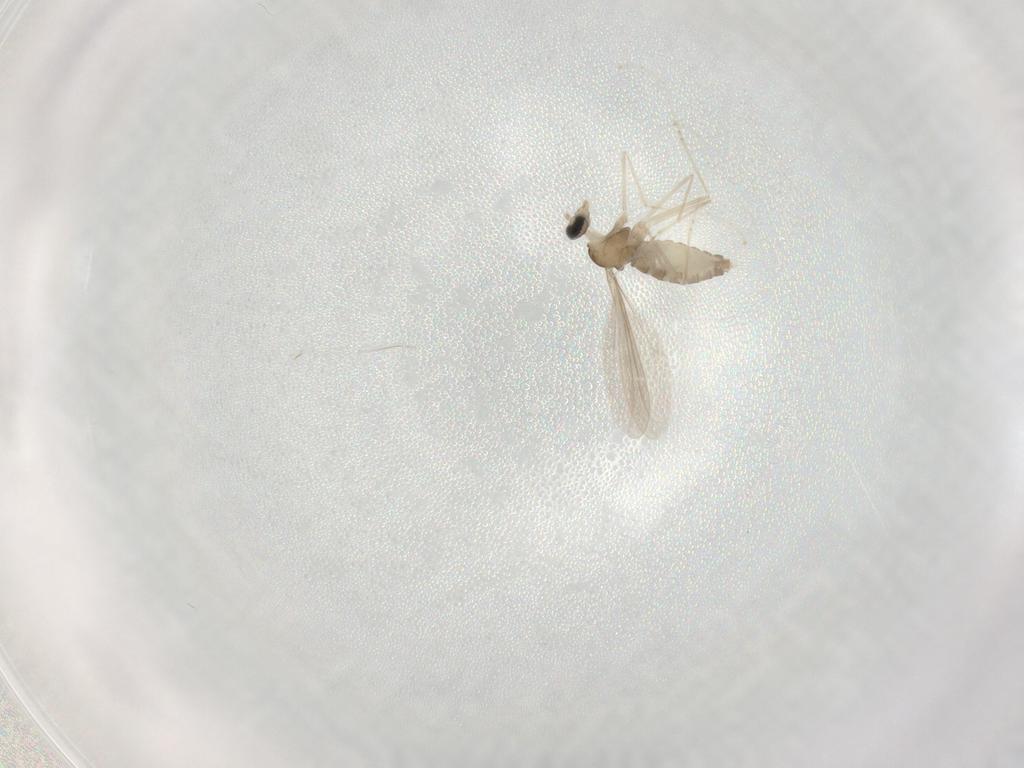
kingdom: Animalia
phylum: Arthropoda
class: Insecta
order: Diptera
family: Cecidomyiidae
